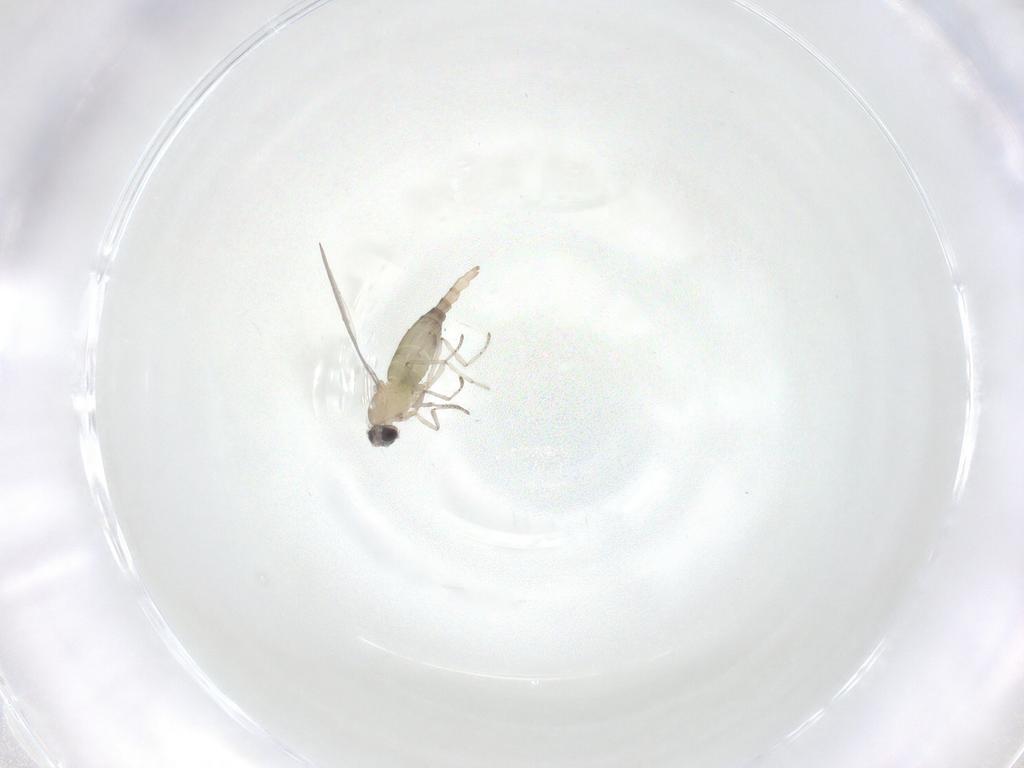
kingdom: Animalia
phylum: Arthropoda
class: Insecta
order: Diptera
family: Cecidomyiidae
